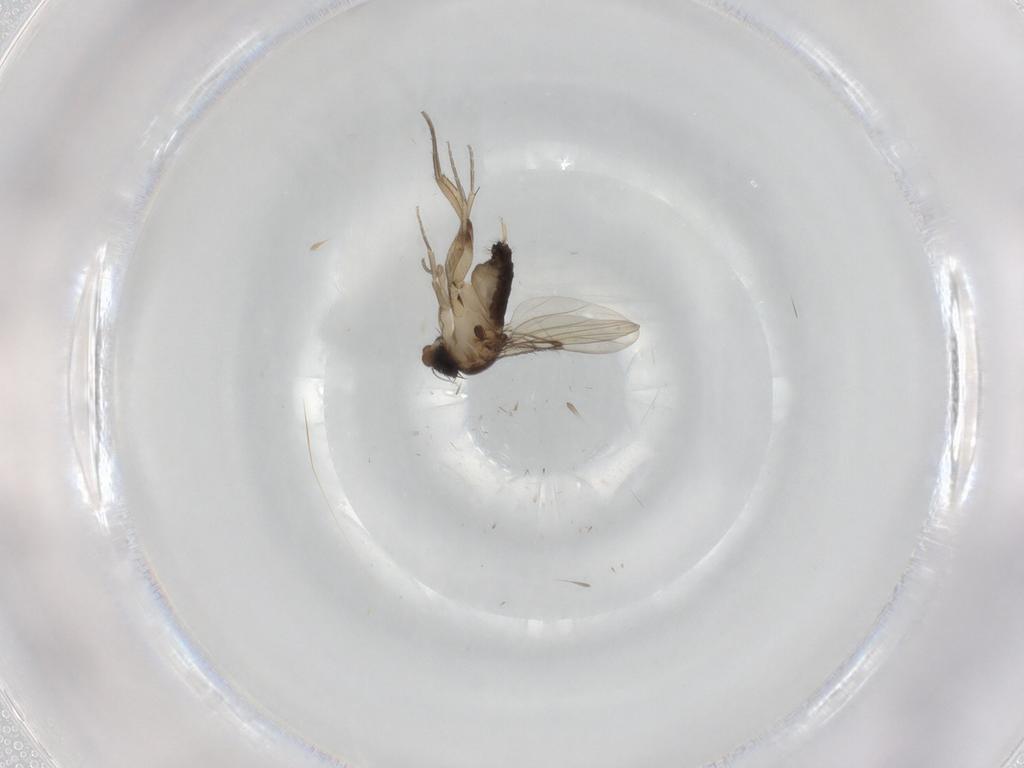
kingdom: Animalia
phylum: Arthropoda
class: Insecta
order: Diptera
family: Phoridae
